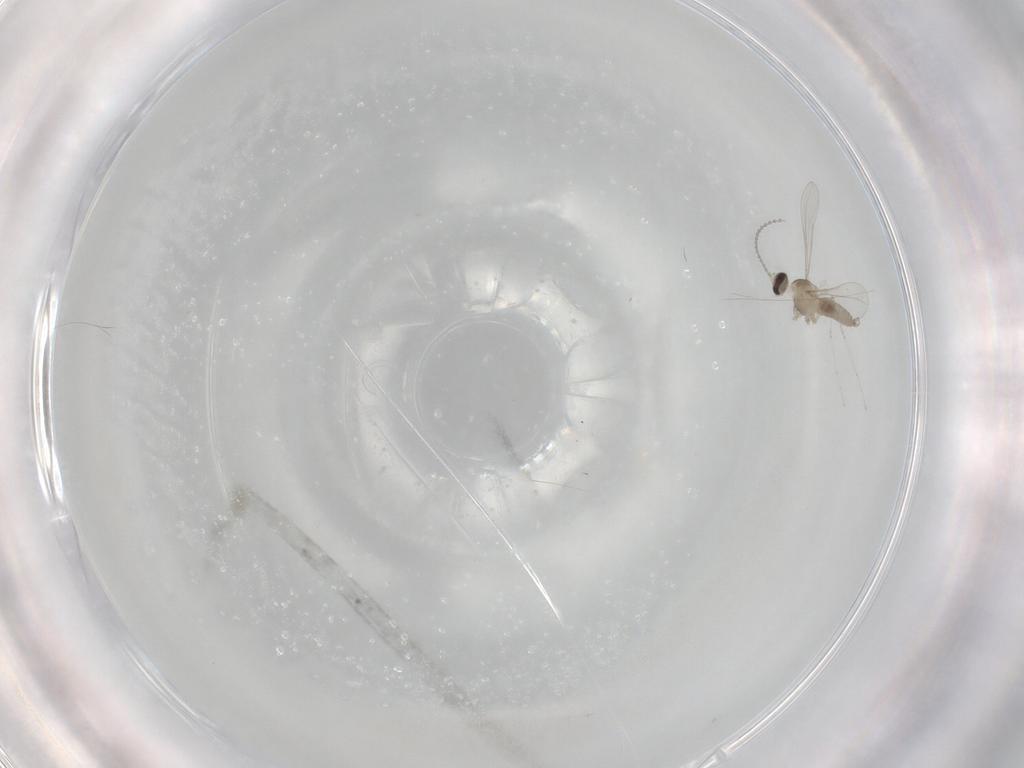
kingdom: Animalia
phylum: Arthropoda
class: Insecta
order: Diptera
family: Cecidomyiidae
